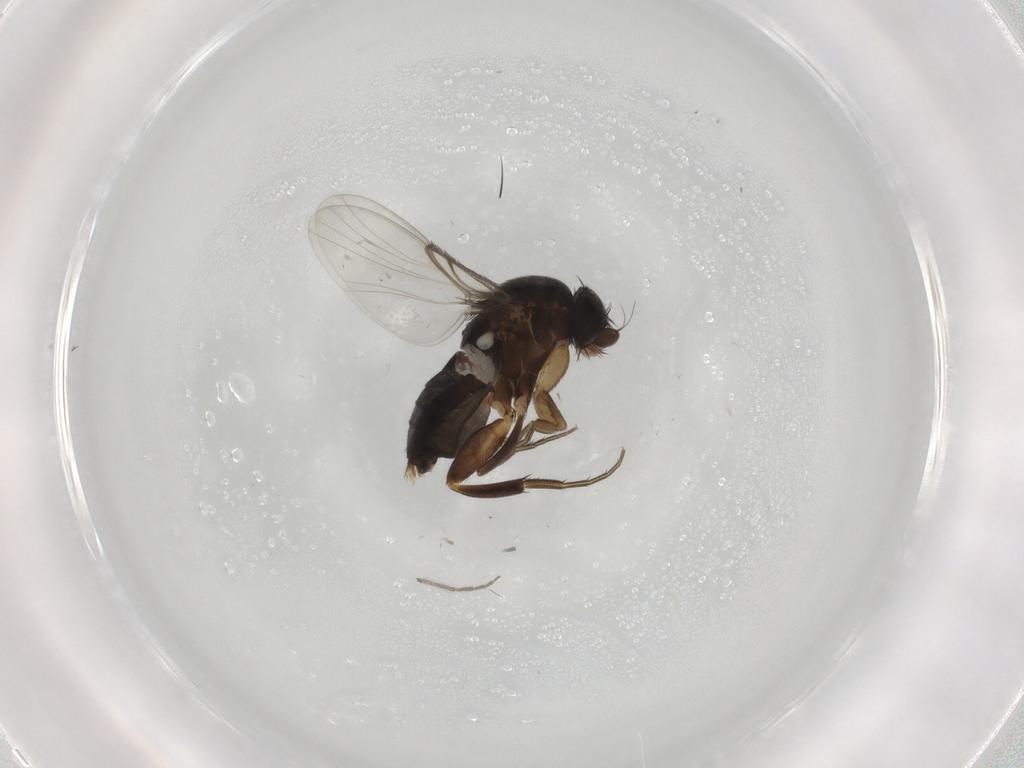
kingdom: Animalia
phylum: Arthropoda
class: Insecta
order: Diptera
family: Phoridae
